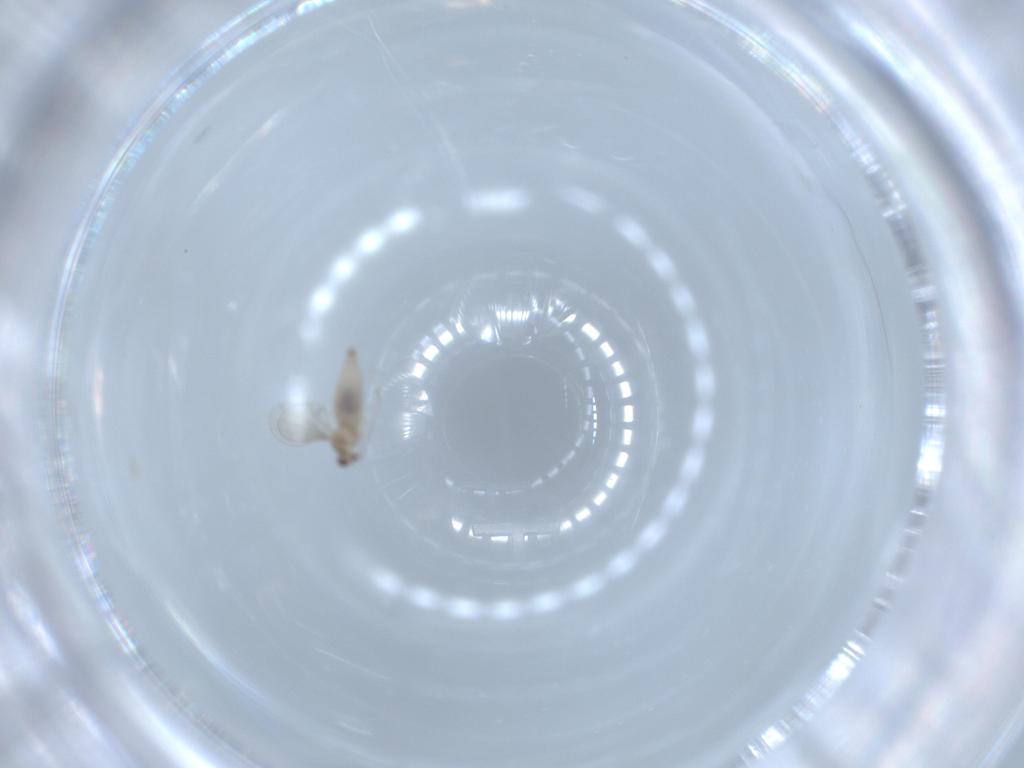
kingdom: Animalia
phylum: Arthropoda
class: Insecta
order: Diptera
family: Cecidomyiidae
